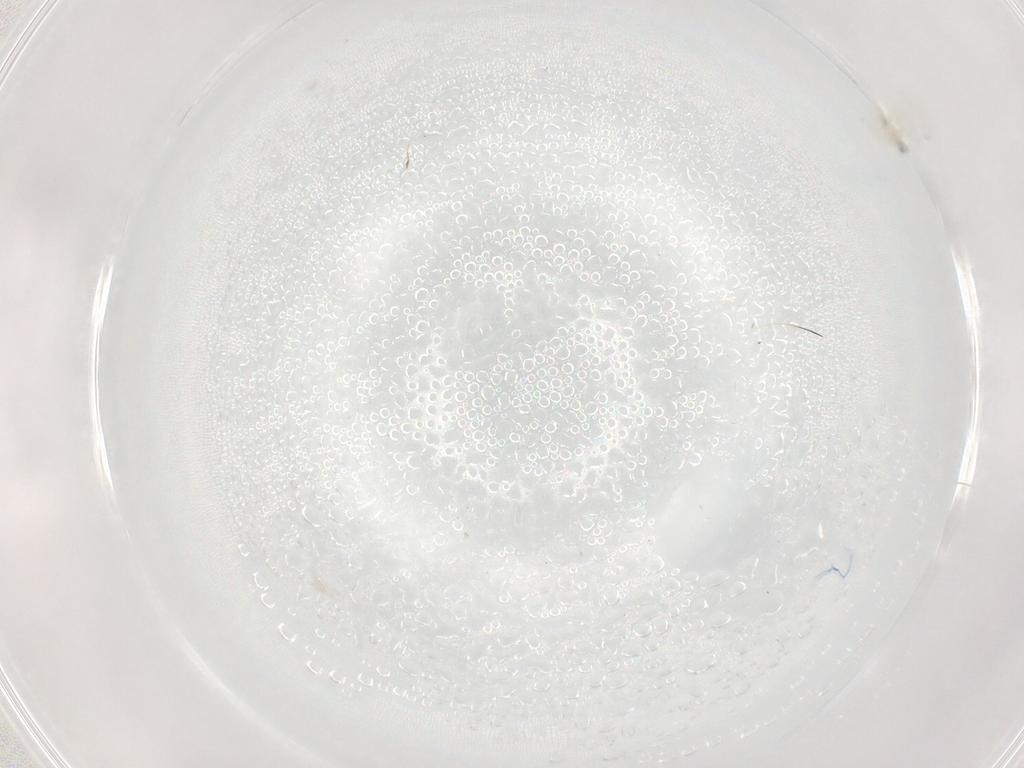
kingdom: Animalia
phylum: Arthropoda
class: Insecta
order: Hymenoptera
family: Mymaridae
